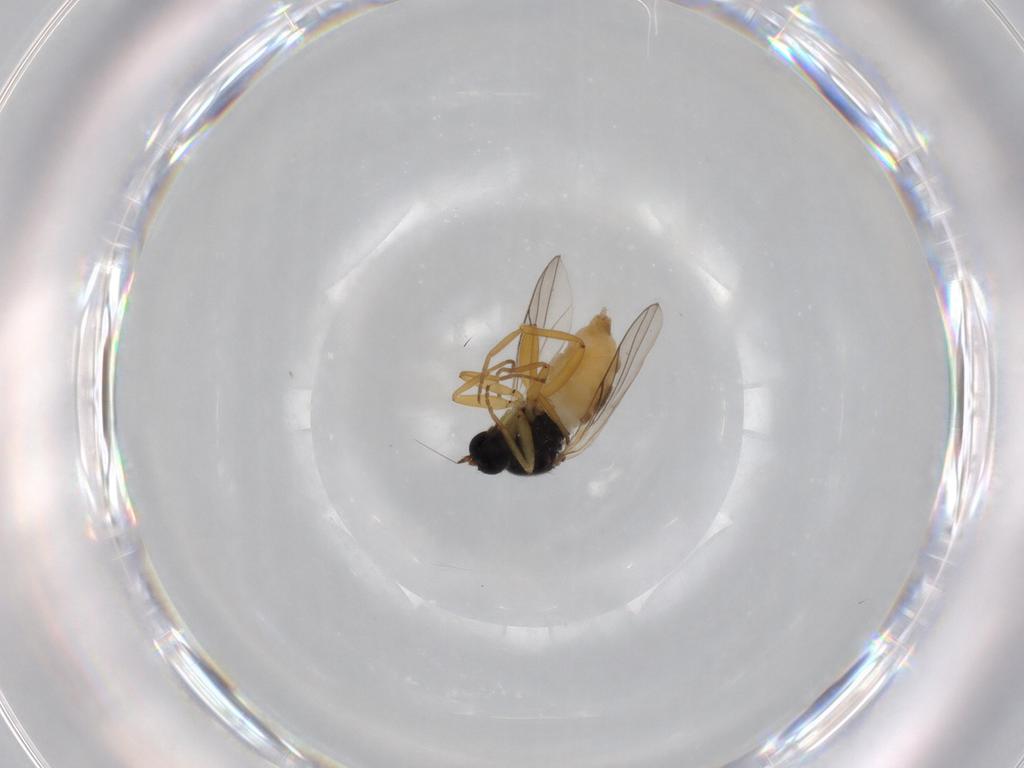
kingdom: Animalia
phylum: Arthropoda
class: Insecta
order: Diptera
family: Hybotidae
